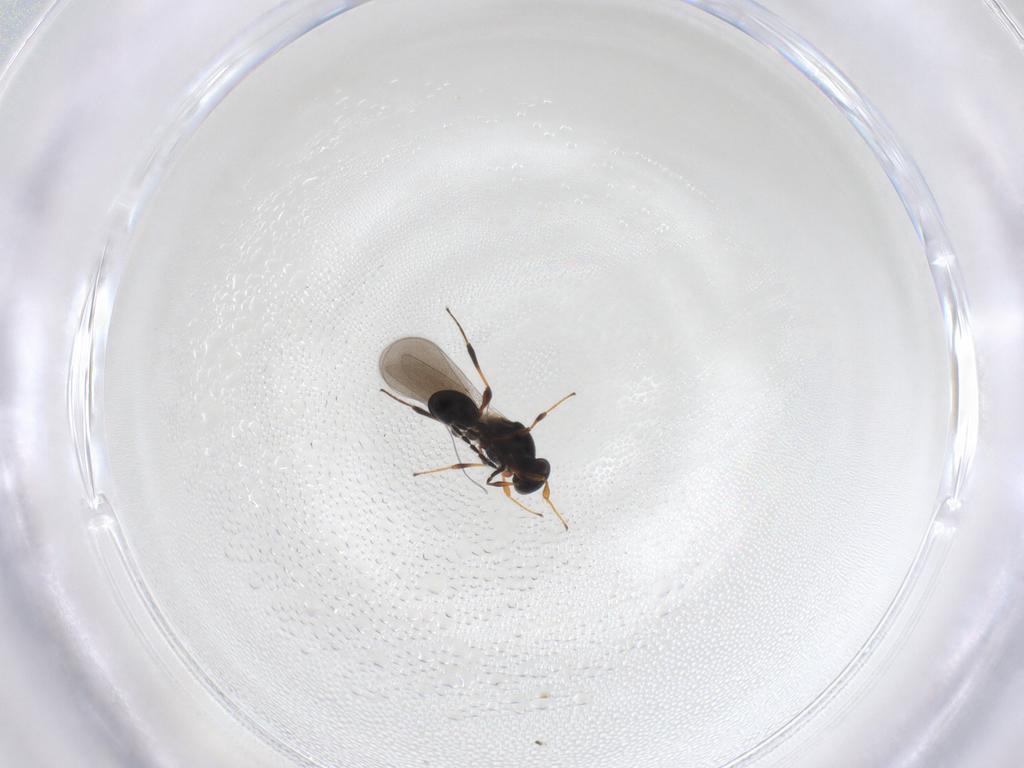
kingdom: Animalia
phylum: Arthropoda
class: Insecta
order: Hymenoptera
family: Platygastridae
